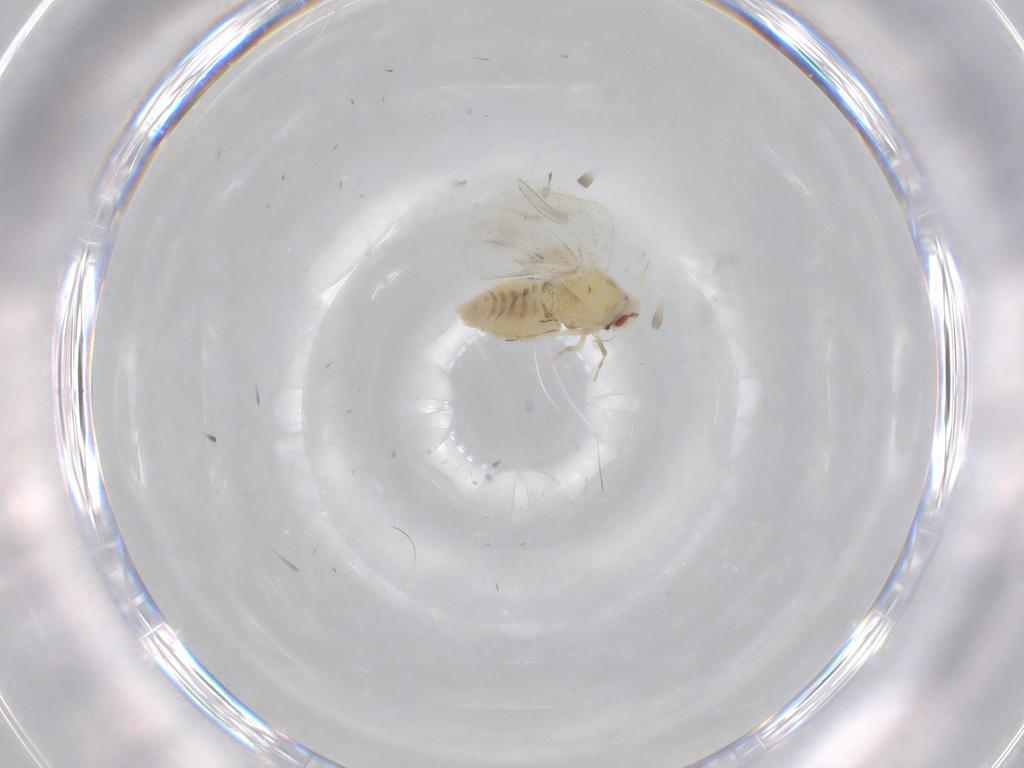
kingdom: Animalia
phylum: Arthropoda
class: Insecta
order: Hemiptera
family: Aleyrodidae
